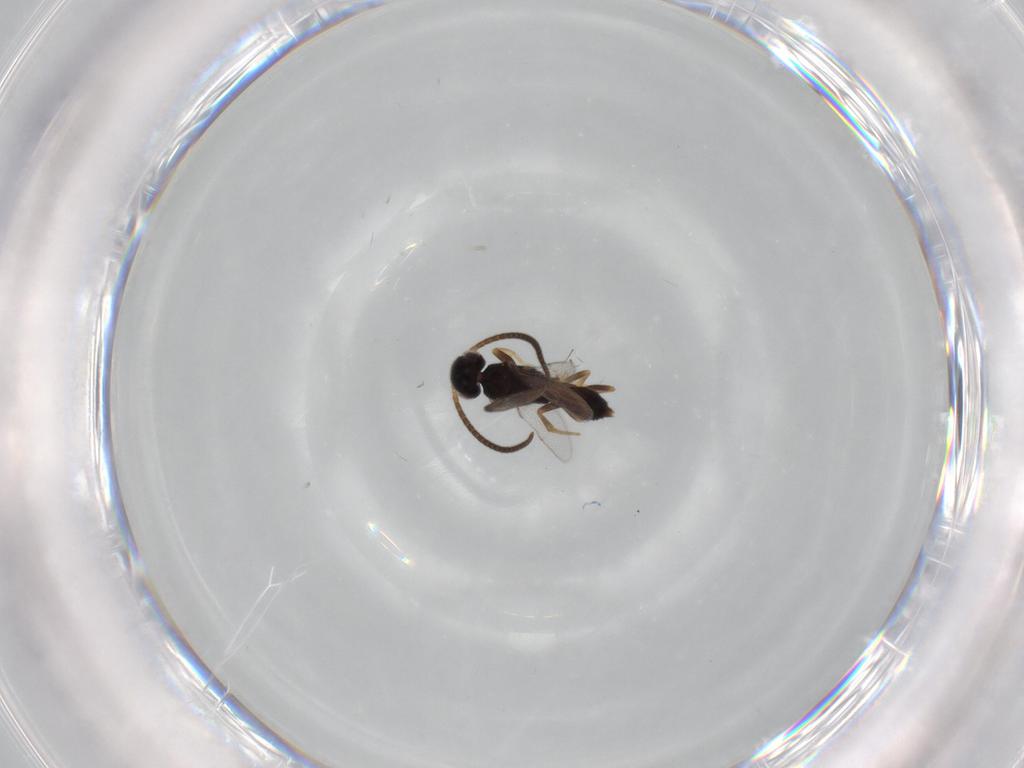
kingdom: Animalia
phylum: Arthropoda
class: Insecta
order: Hymenoptera
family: Sclerogibbidae
